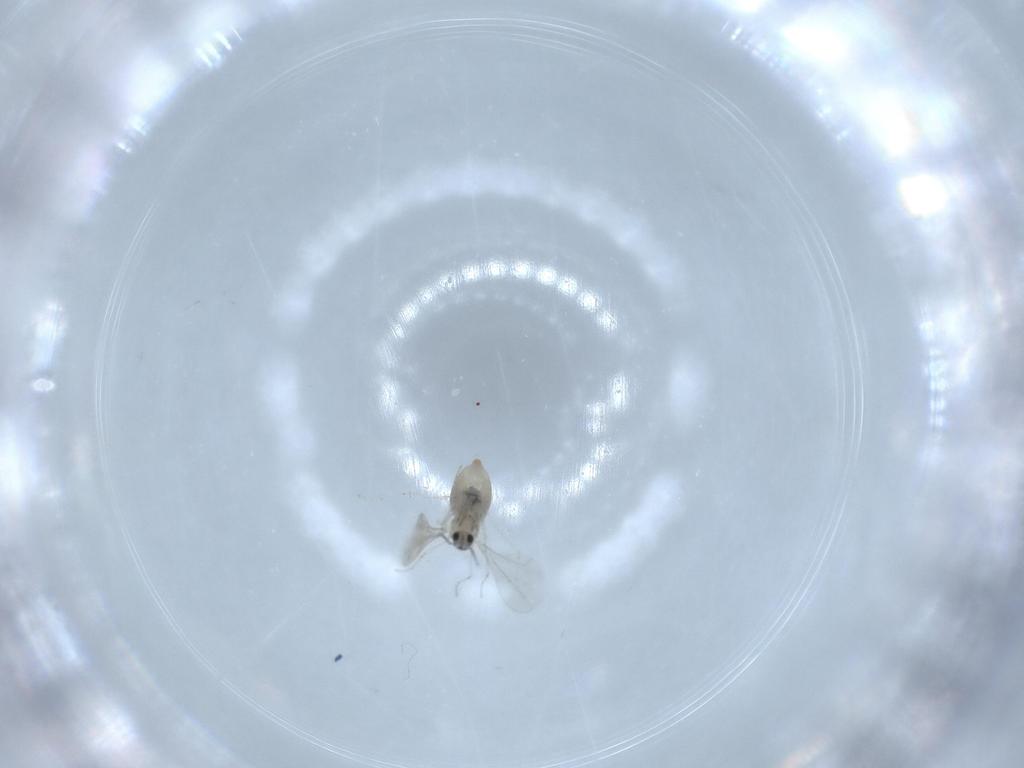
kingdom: Animalia
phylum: Arthropoda
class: Insecta
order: Diptera
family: Cecidomyiidae
